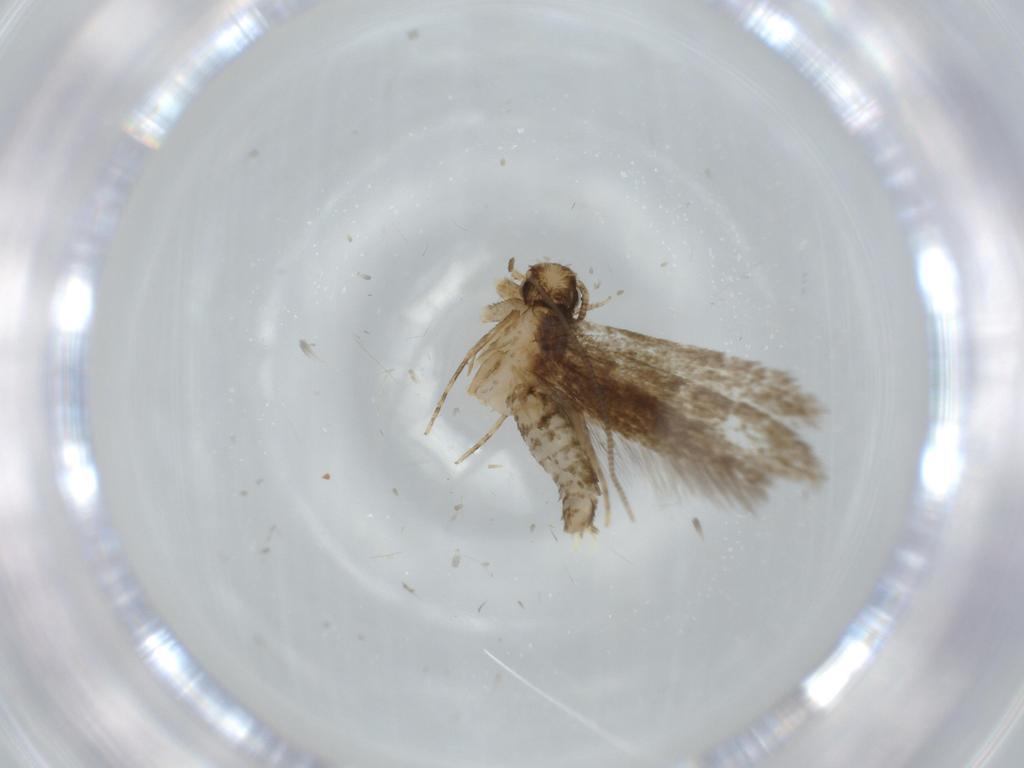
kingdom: Animalia
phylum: Arthropoda
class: Insecta
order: Lepidoptera
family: Tineidae
